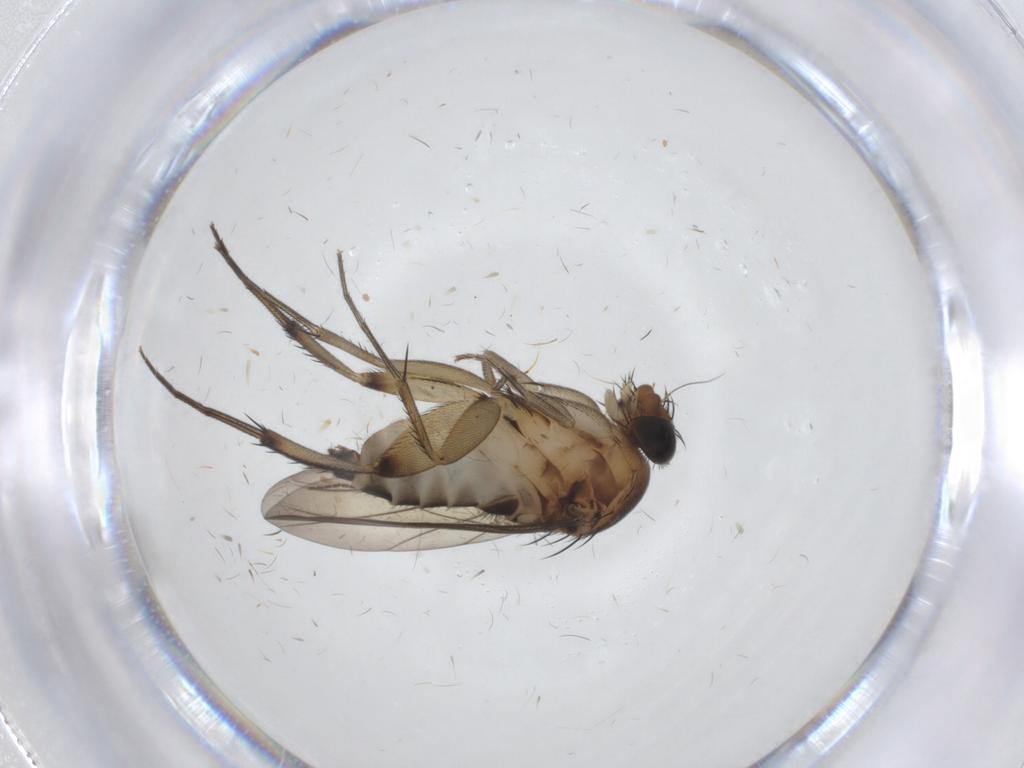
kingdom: Animalia
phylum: Arthropoda
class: Insecta
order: Diptera
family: Phoridae
